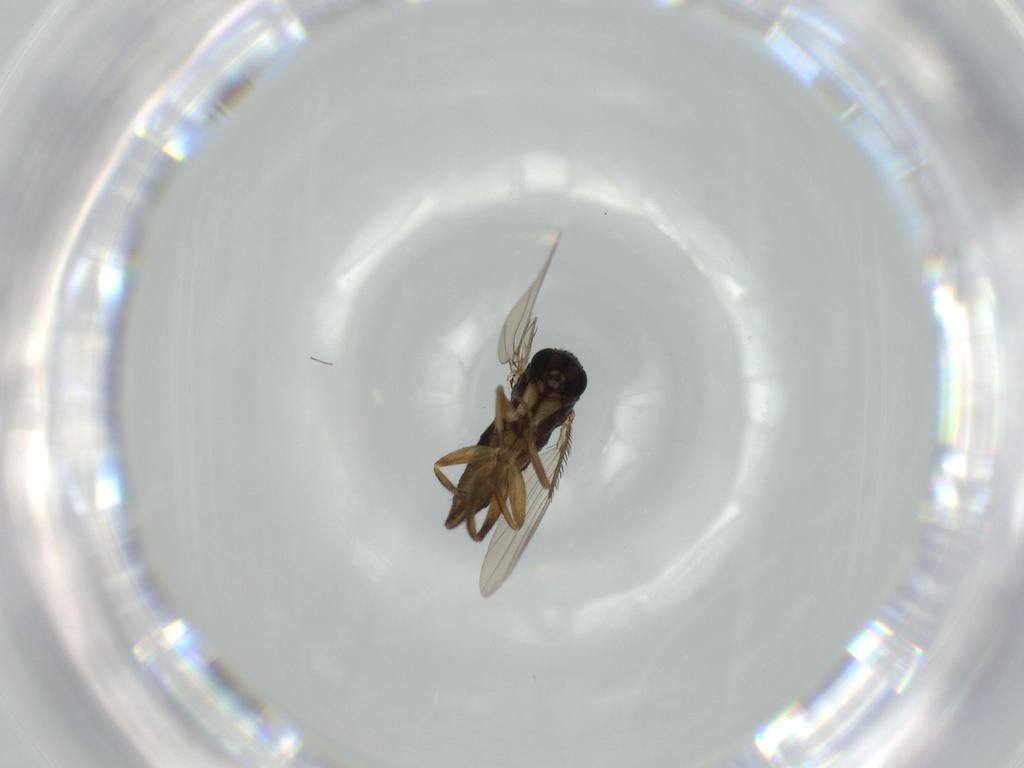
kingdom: Animalia
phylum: Arthropoda
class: Insecta
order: Diptera
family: Phoridae
